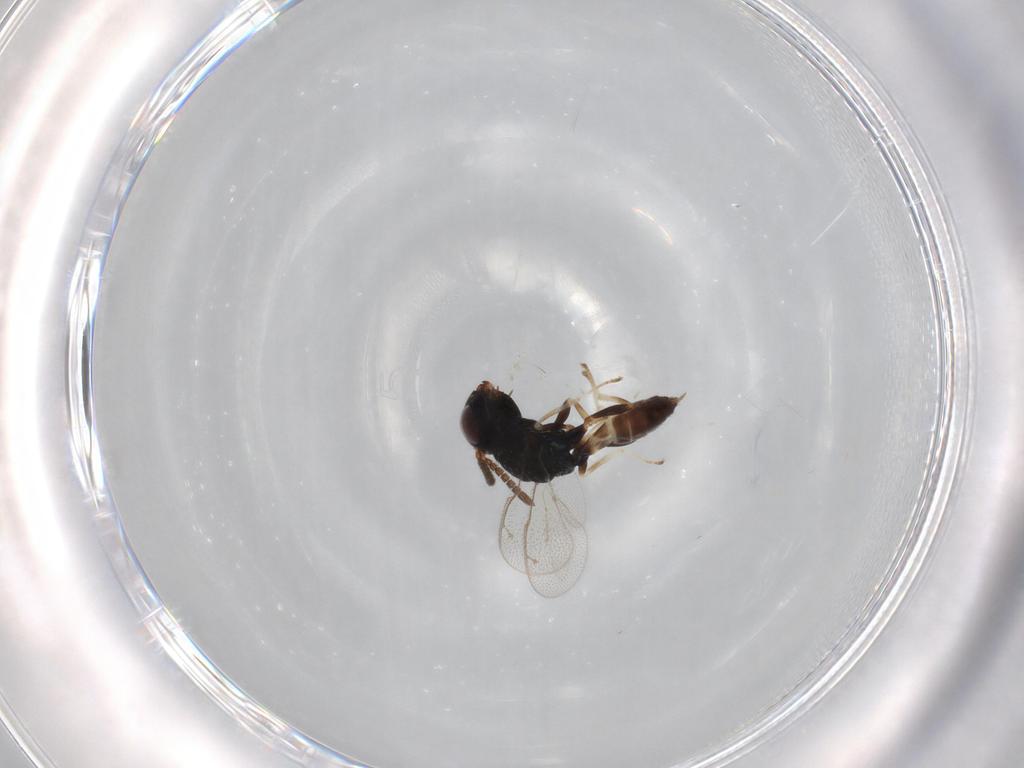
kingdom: Animalia
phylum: Arthropoda
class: Insecta
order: Hymenoptera
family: Pteromalidae
